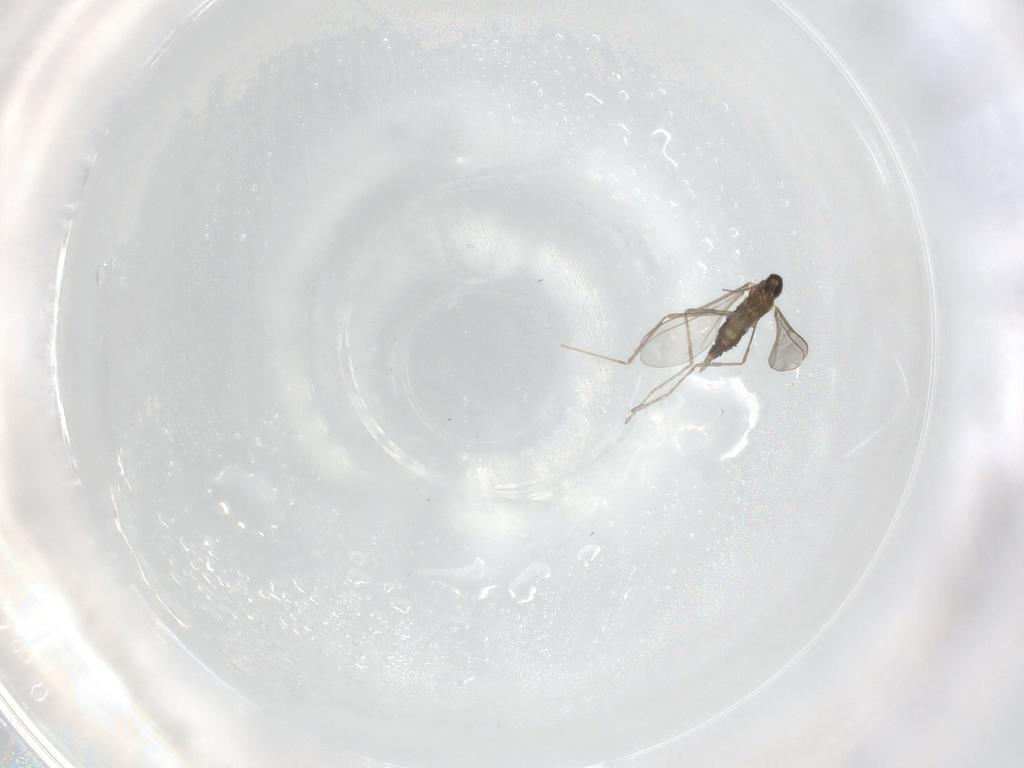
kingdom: Animalia
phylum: Arthropoda
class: Insecta
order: Diptera
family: Cecidomyiidae
